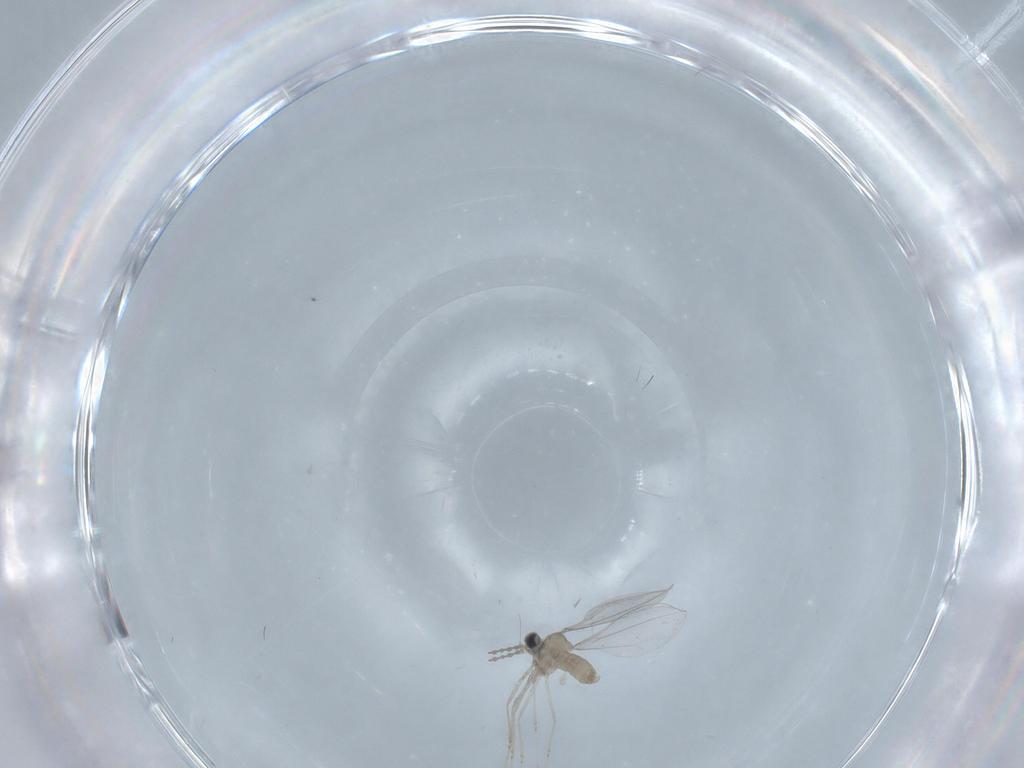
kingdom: Animalia
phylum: Arthropoda
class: Insecta
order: Diptera
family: Cecidomyiidae
